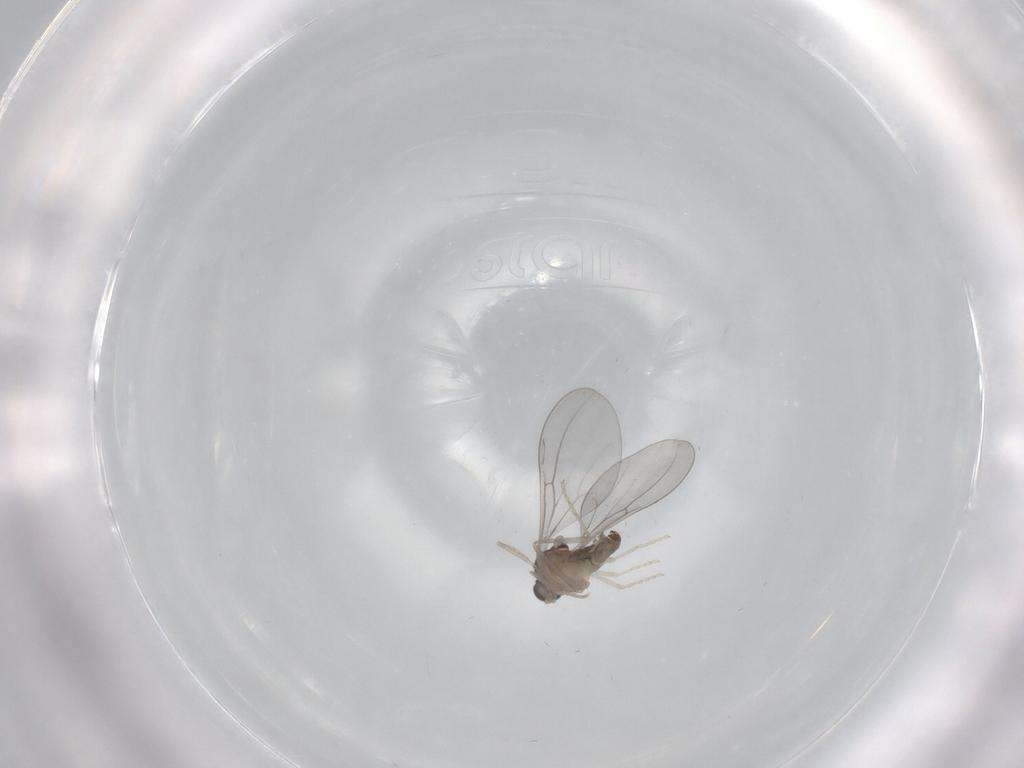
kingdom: Animalia
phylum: Arthropoda
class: Insecta
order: Diptera
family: Cecidomyiidae
